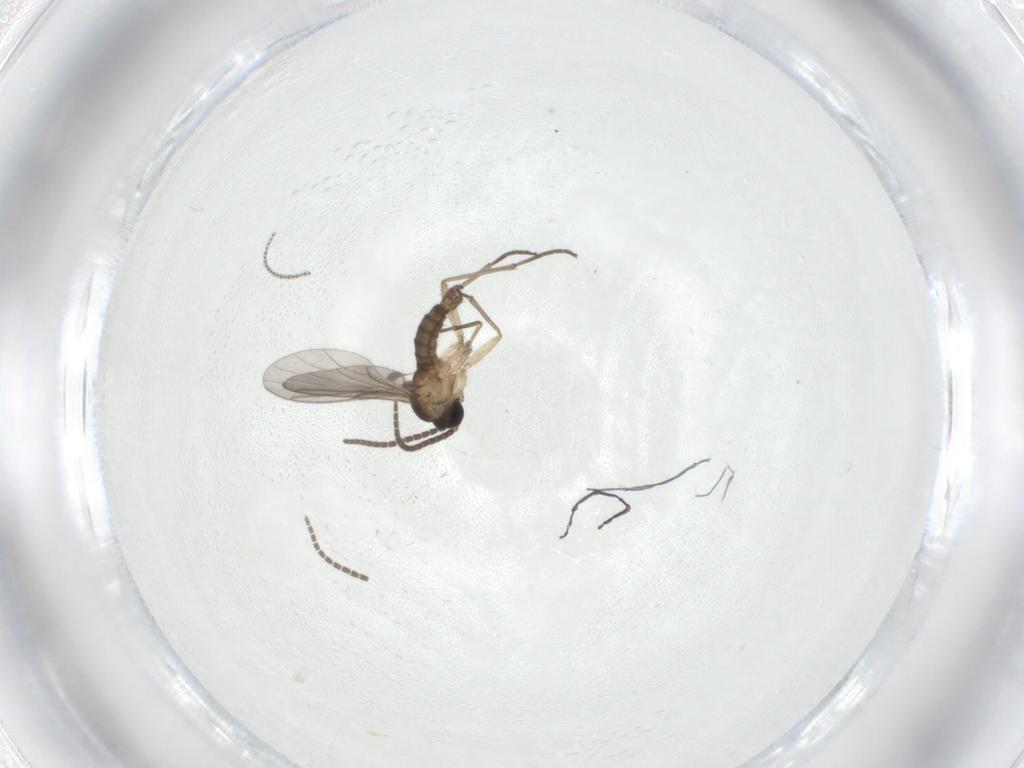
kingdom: Animalia
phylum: Arthropoda
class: Insecta
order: Diptera
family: Sciaridae
